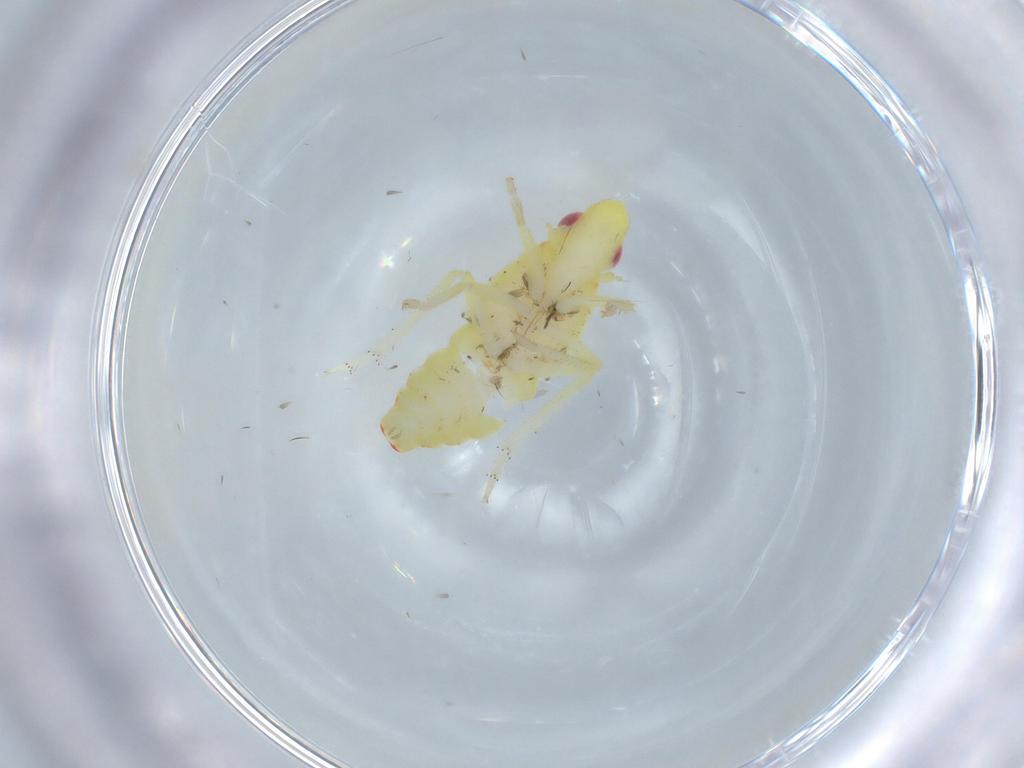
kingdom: Animalia
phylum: Arthropoda
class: Insecta
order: Hemiptera
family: Tropiduchidae
